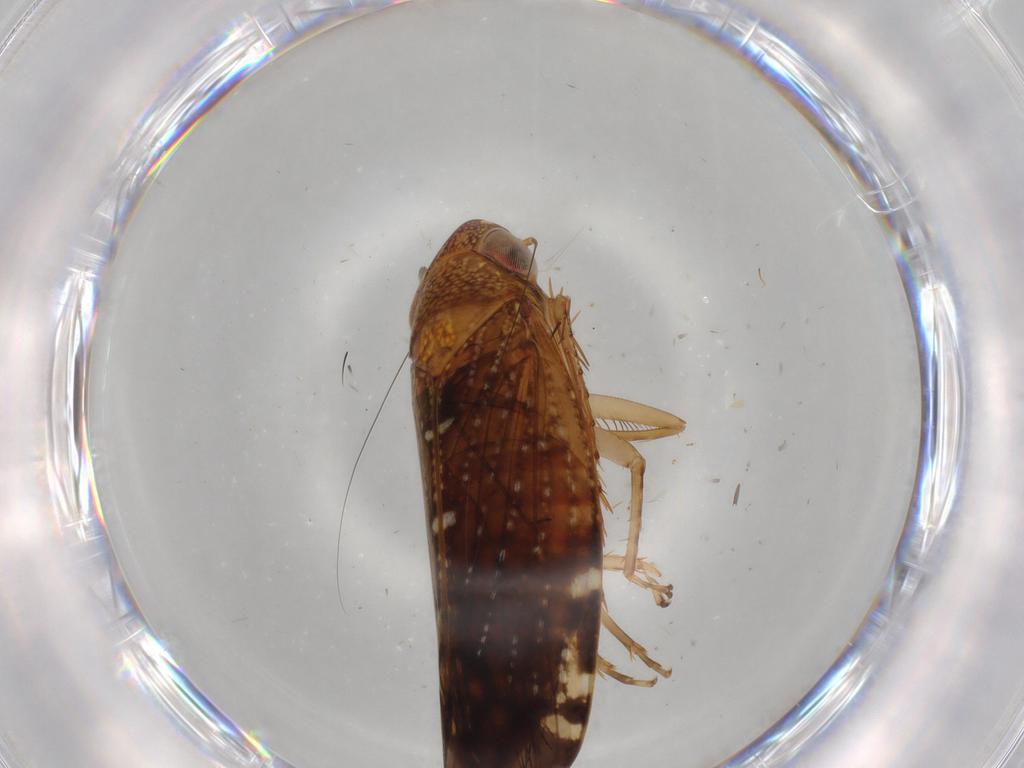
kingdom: Animalia
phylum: Arthropoda
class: Insecta
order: Hemiptera
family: Cicadellidae
